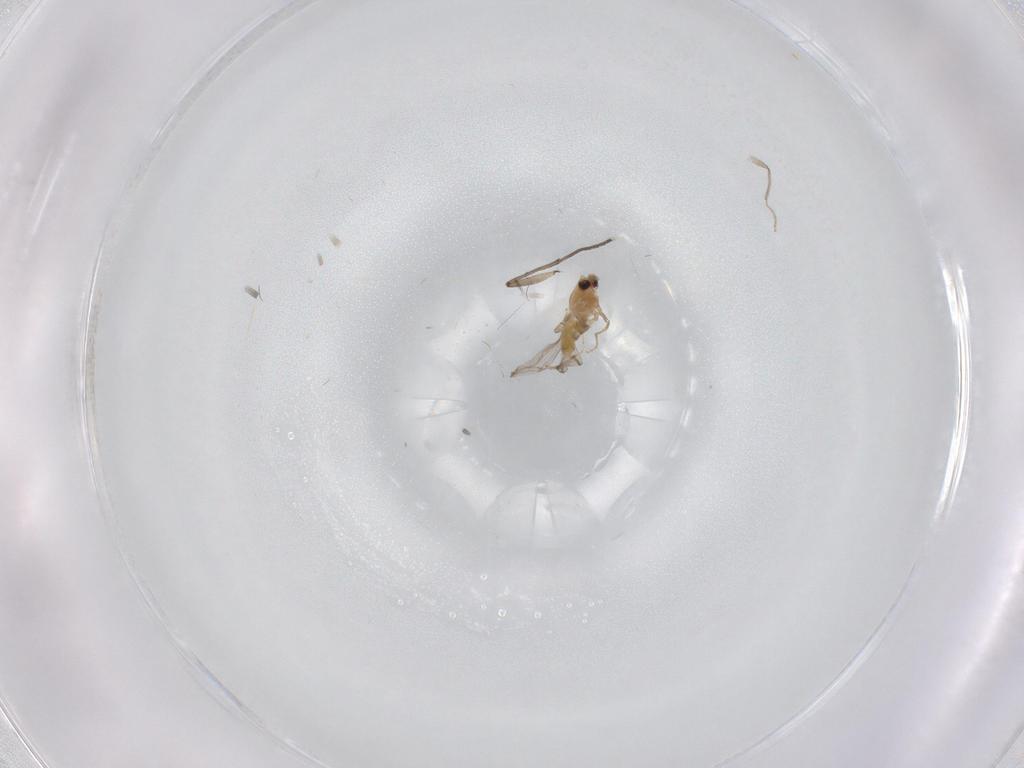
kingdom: Animalia
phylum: Arthropoda
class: Insecta
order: Diptera
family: Chironomidae
